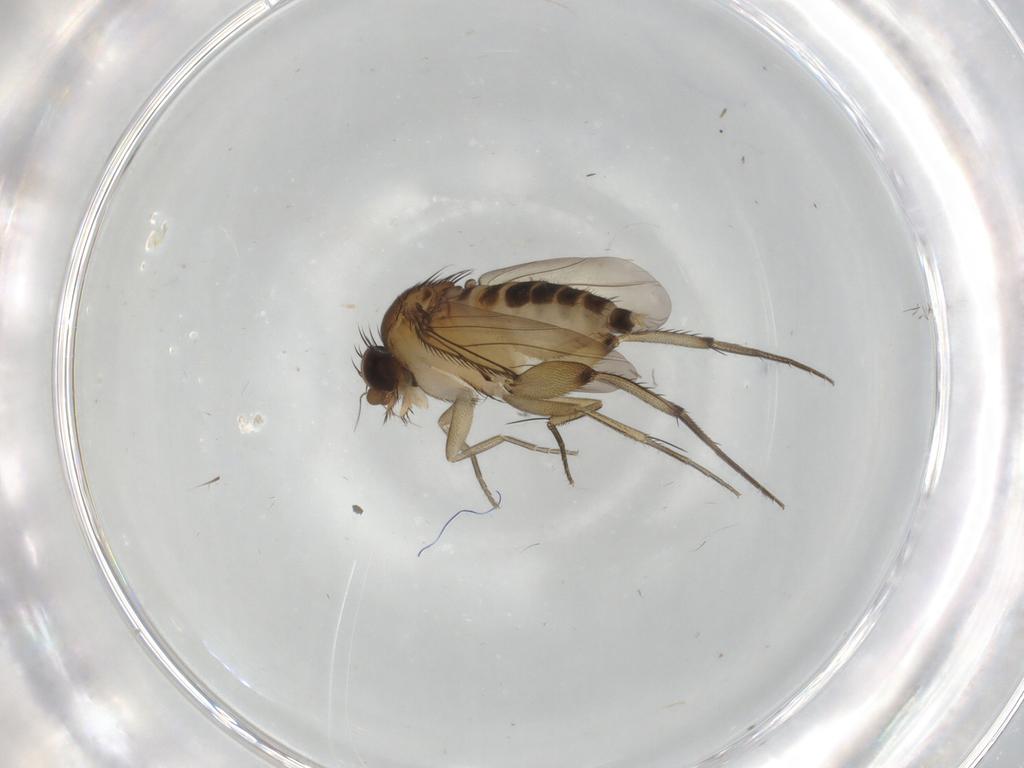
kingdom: Animalia
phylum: Arthropoda
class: Insecta
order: Diptera
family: Phoridae
